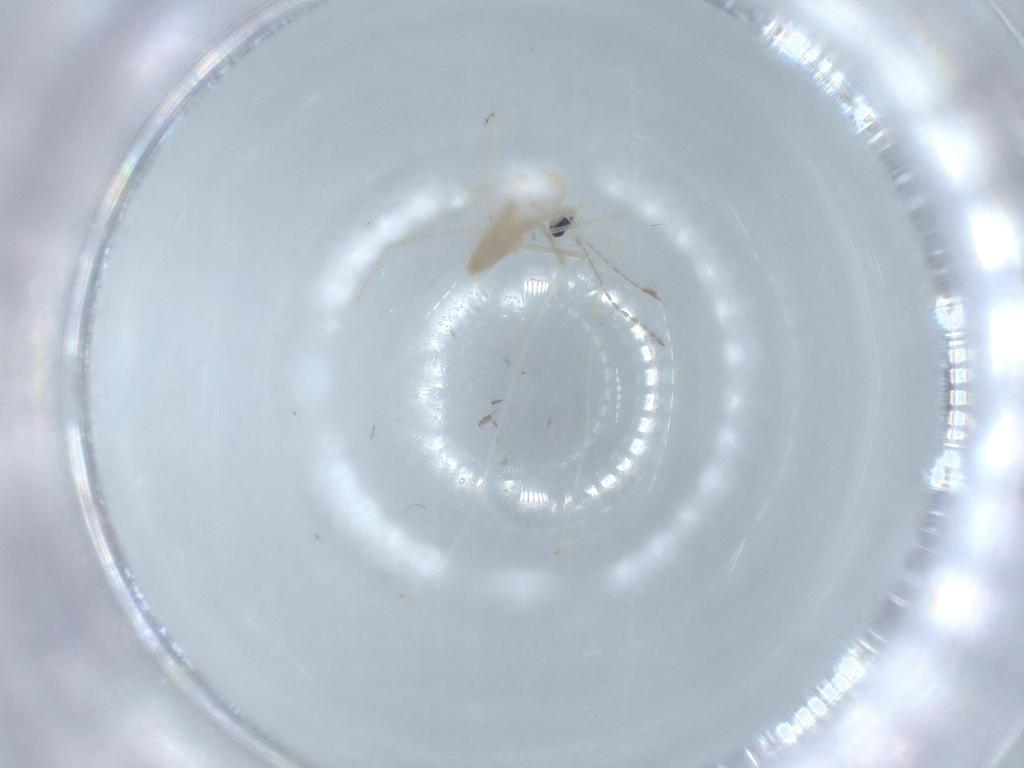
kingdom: Animalia
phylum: Arthropoda
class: Insecta
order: Diptera
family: Cecidomyiidae
